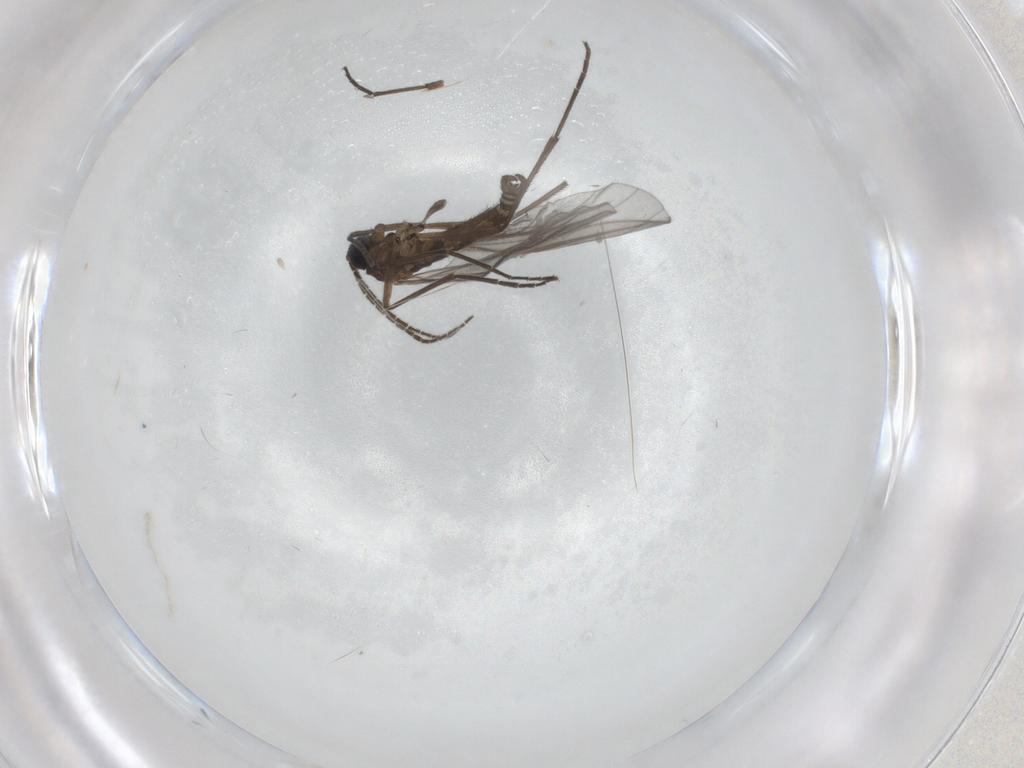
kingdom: Animalia
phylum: Arthropoda
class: Insecta
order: Diptera
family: Sciaridae
